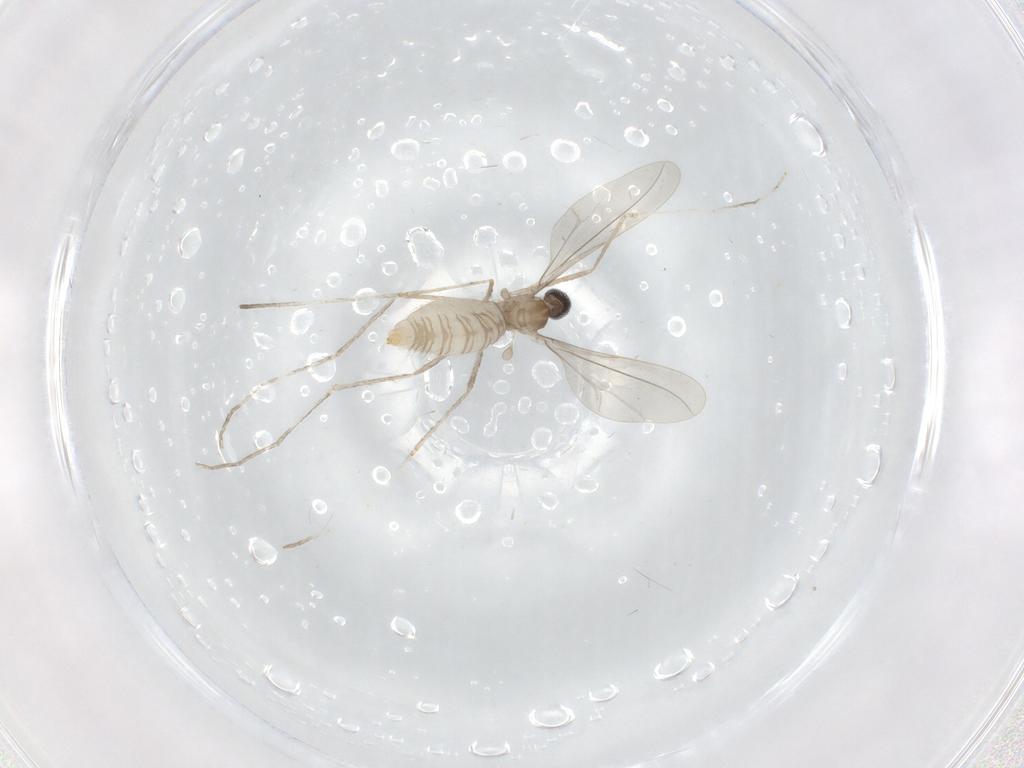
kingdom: Animalia
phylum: Arthropoda
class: Insecta
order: Diptera
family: Cecidomyiidae
